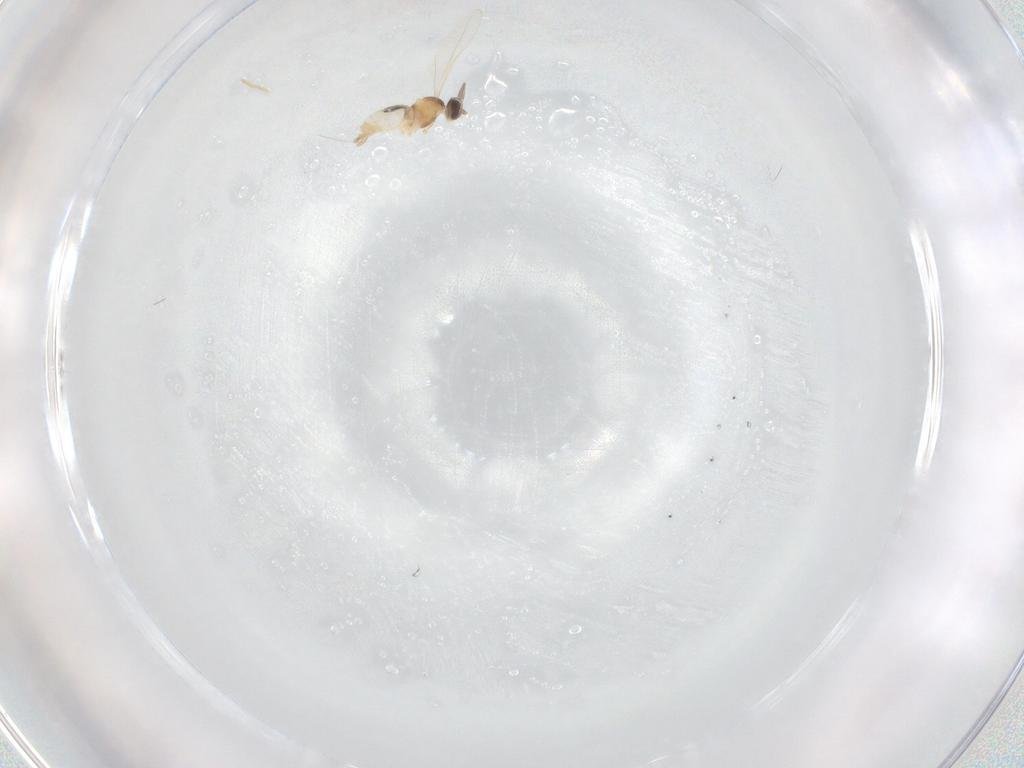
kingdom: Animalia
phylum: Arthropoda
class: Insecta
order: Diptera
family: Cecidomyiidae
